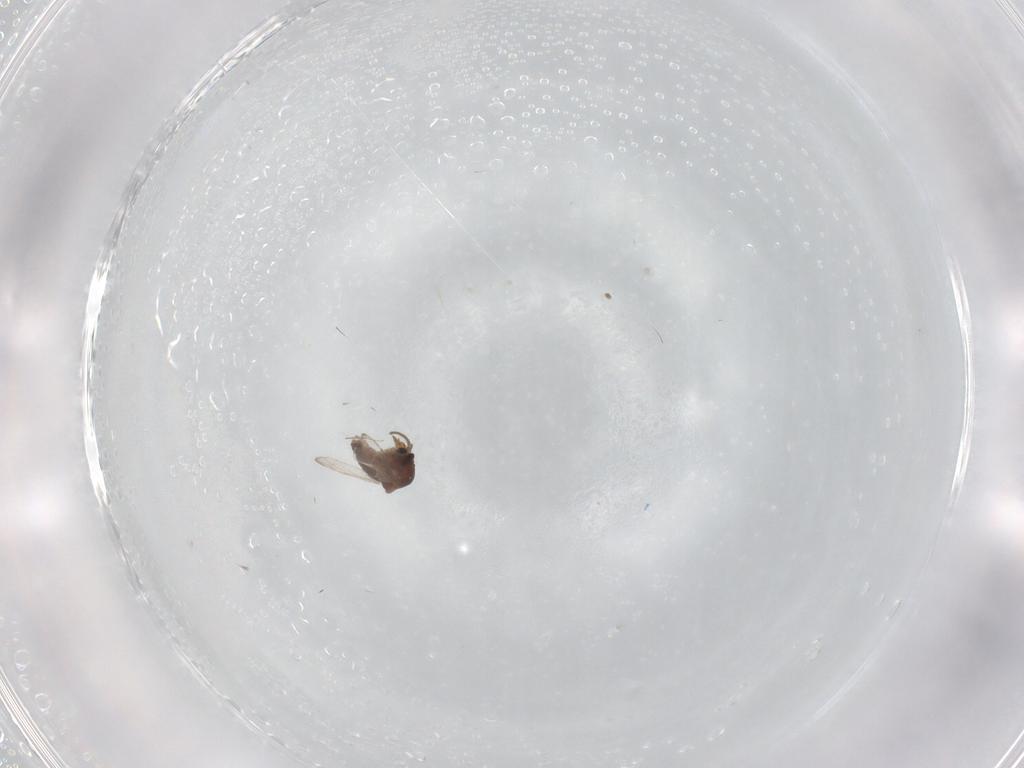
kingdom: Animalia
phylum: Arthropoda
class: Insecta
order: Diptera
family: Ceratopogonidae
